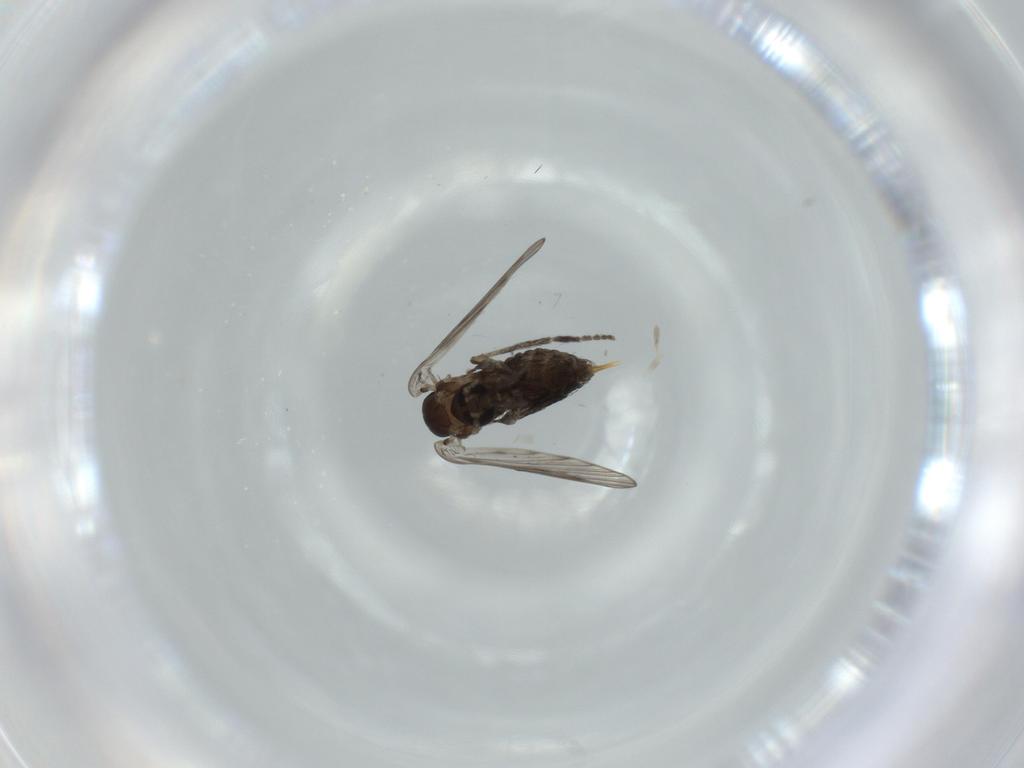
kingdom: Animalia
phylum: Arthropoda
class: Insecta
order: Diptera
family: Psychodidae
